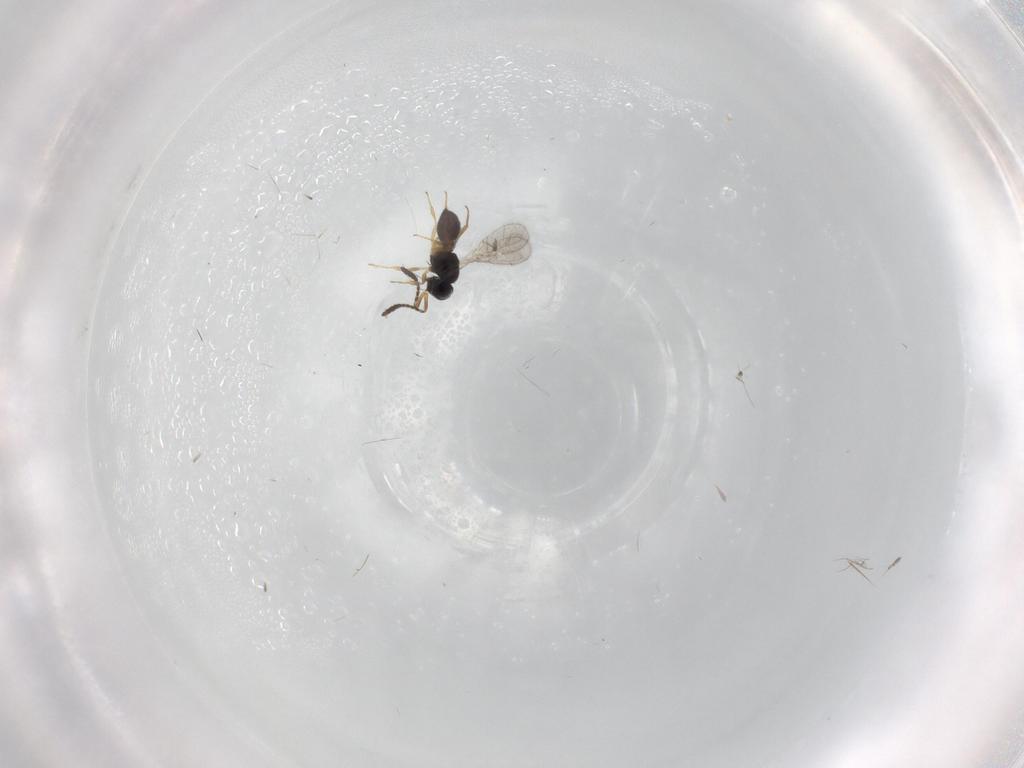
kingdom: Animalia
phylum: Arthropoda
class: Insecta
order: Hymenoptera
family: Scelionidae
